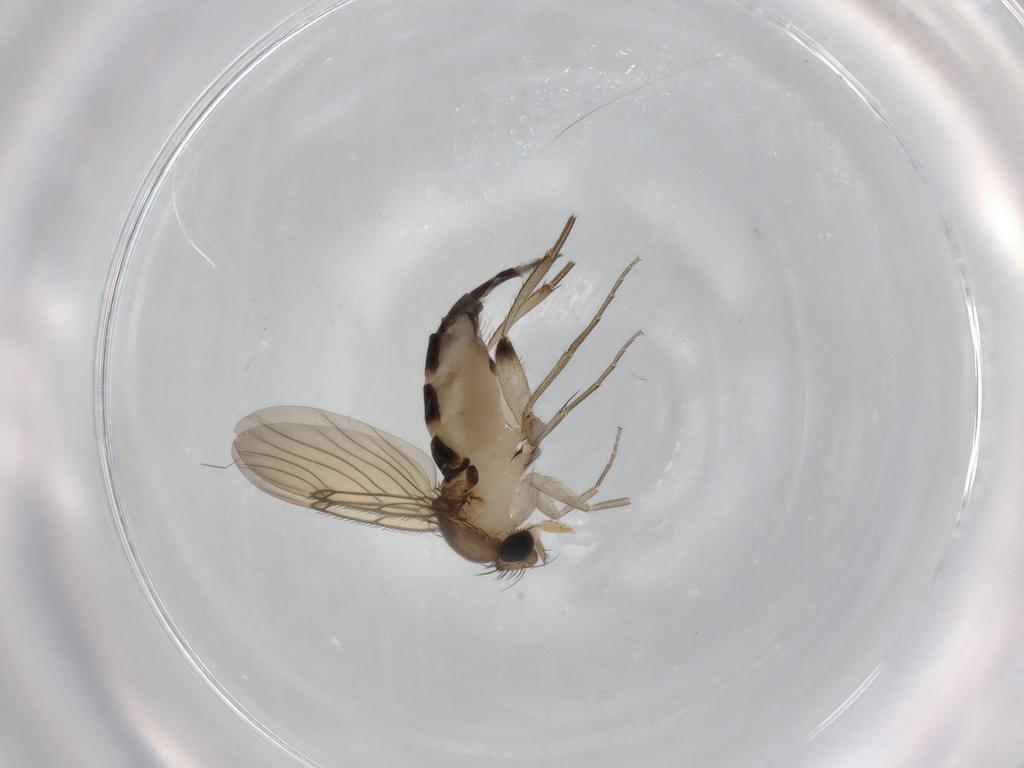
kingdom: Animalia
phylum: Arthropoda
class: Insecta
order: Diptera
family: Phoridae
